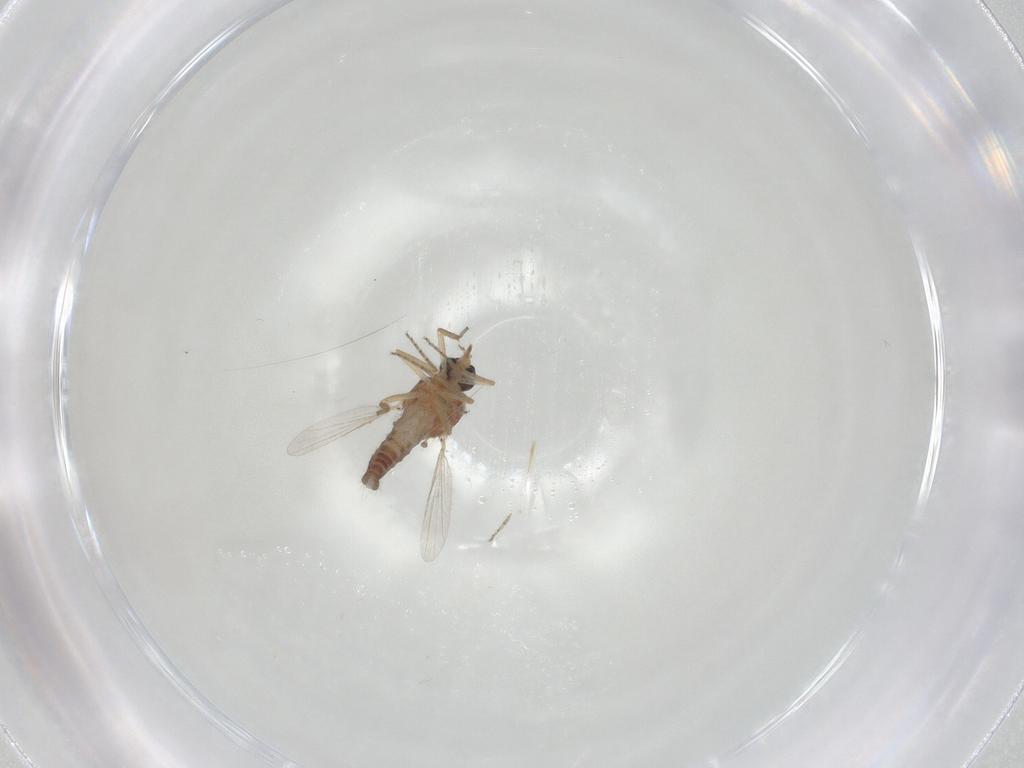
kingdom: Animalia
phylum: Arthropoda
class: Insecta
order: Diptera
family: Ceratopogonidae
